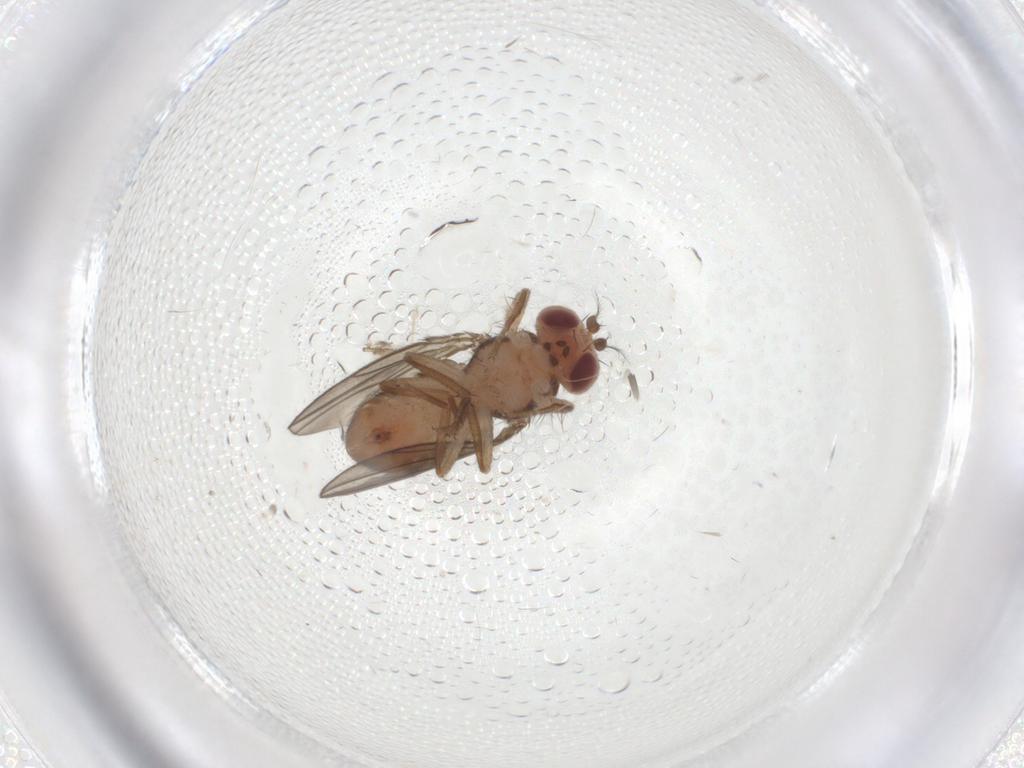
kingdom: Animalia
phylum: Arthropoda
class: Insecta
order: Diptera
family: Drosophilidae
